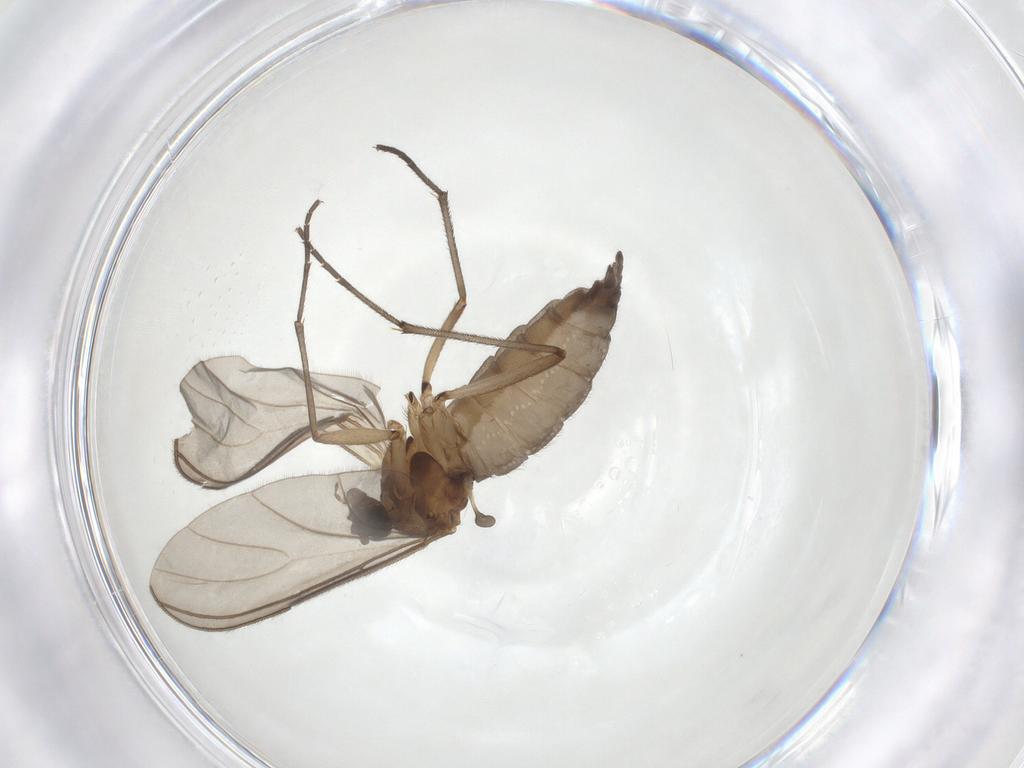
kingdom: Animalia
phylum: Arthropoda
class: Insecta
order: Diptera
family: Sciaridae
